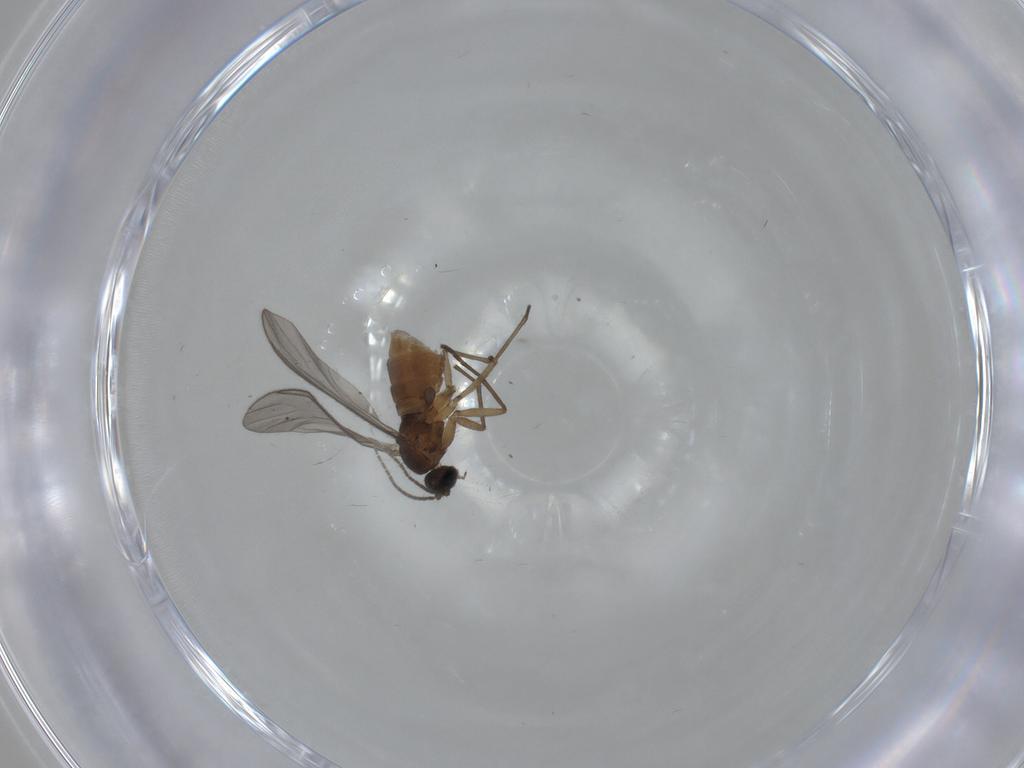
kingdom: Animalia
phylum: Arthropoda
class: Insecta
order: Diptera
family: Sciaridae
